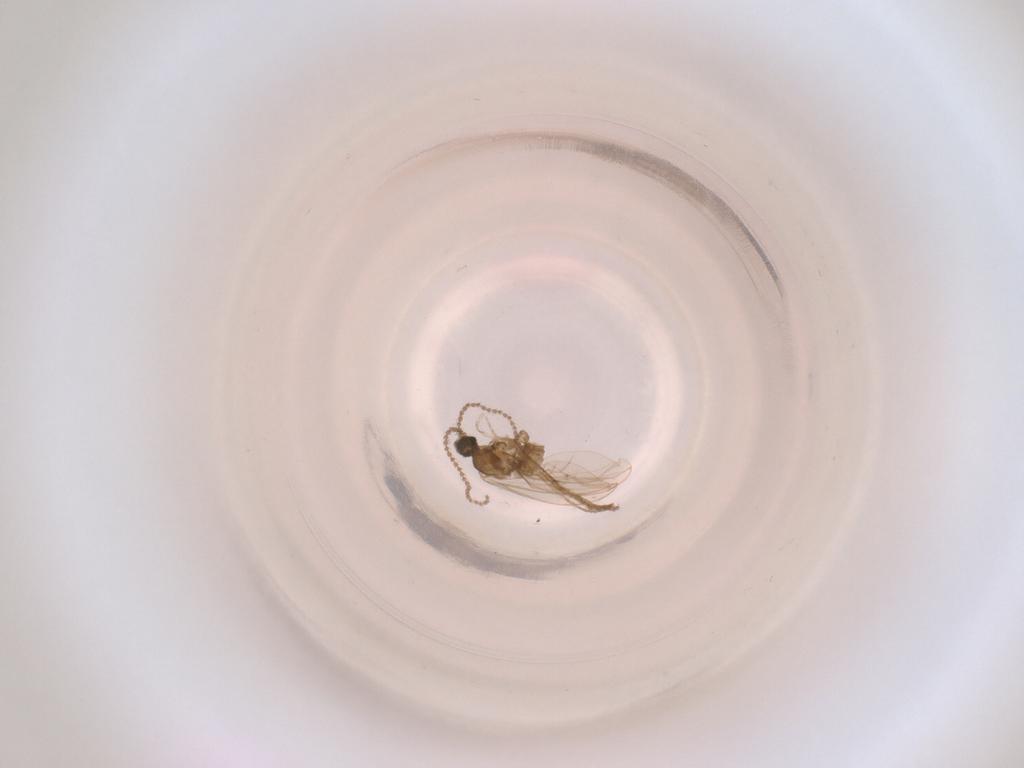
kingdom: Animalia
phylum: Arthropoda
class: Insecta
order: Diptera
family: Cecidomyiidae
